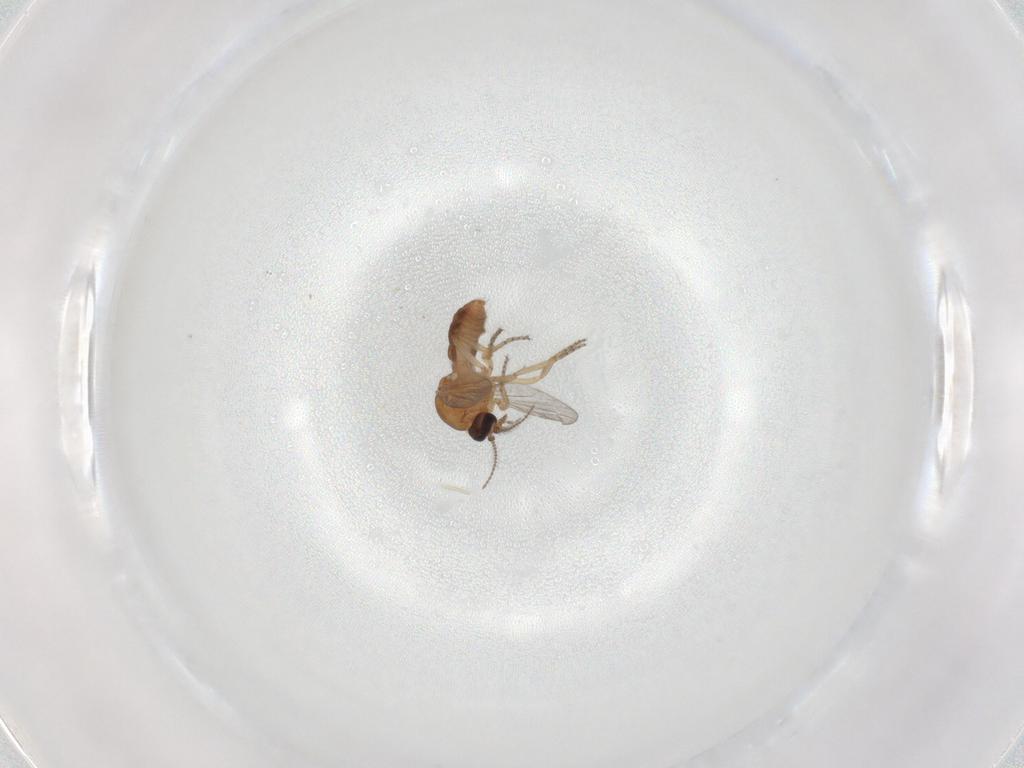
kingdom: Animalia
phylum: Arthropoda
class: Insecta
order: Diptera
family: Ceratopogonidae
